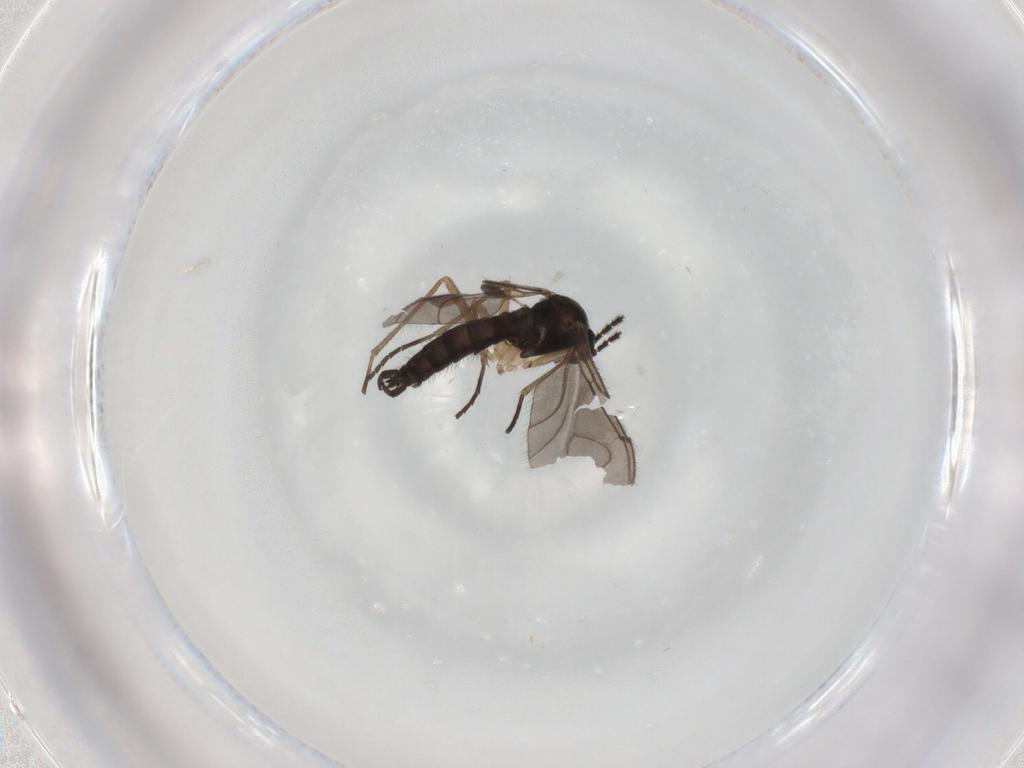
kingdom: Animalia
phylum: Arthropoda
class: Insecta
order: Diptera
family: Sciaridae
